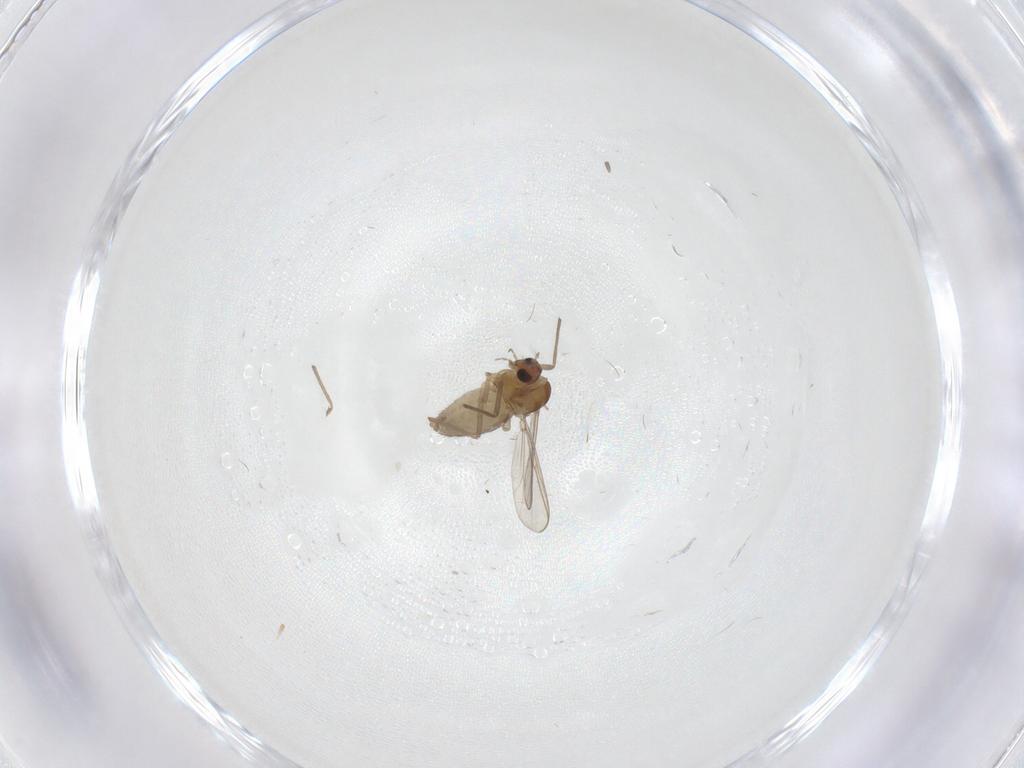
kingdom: Animalia
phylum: Arthropoda
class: Insecta
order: Diptera
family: Chironomidae
